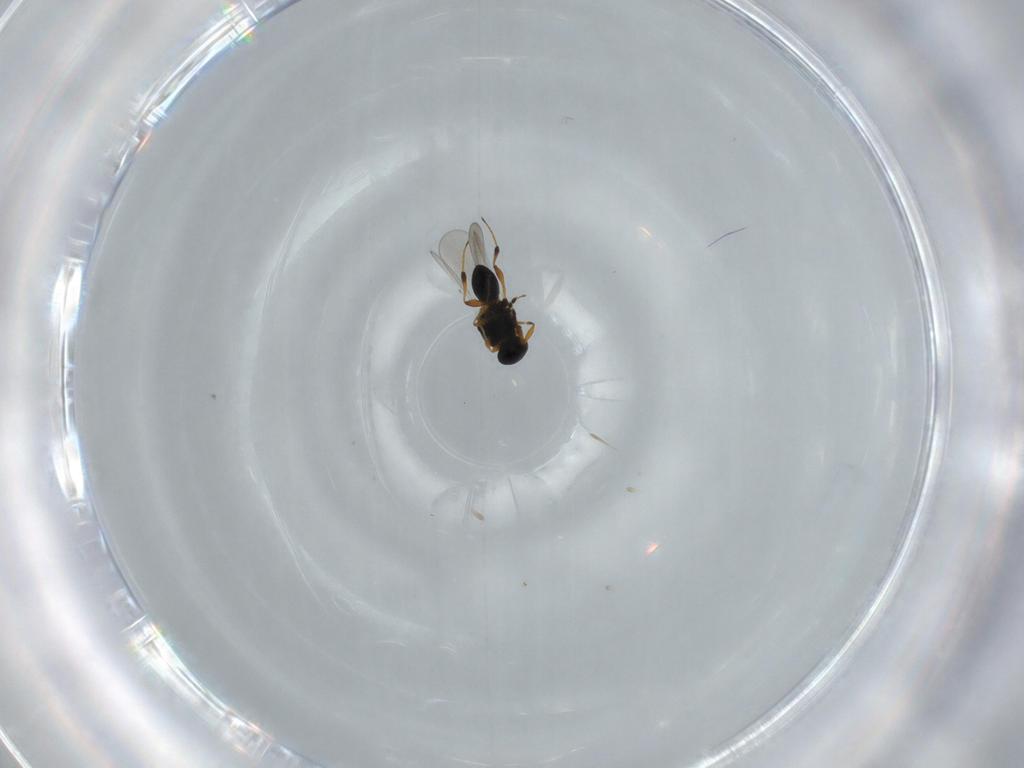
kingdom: Animalia
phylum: Arthropoda
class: Insecta
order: Hymenoptera
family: Platygastridae
